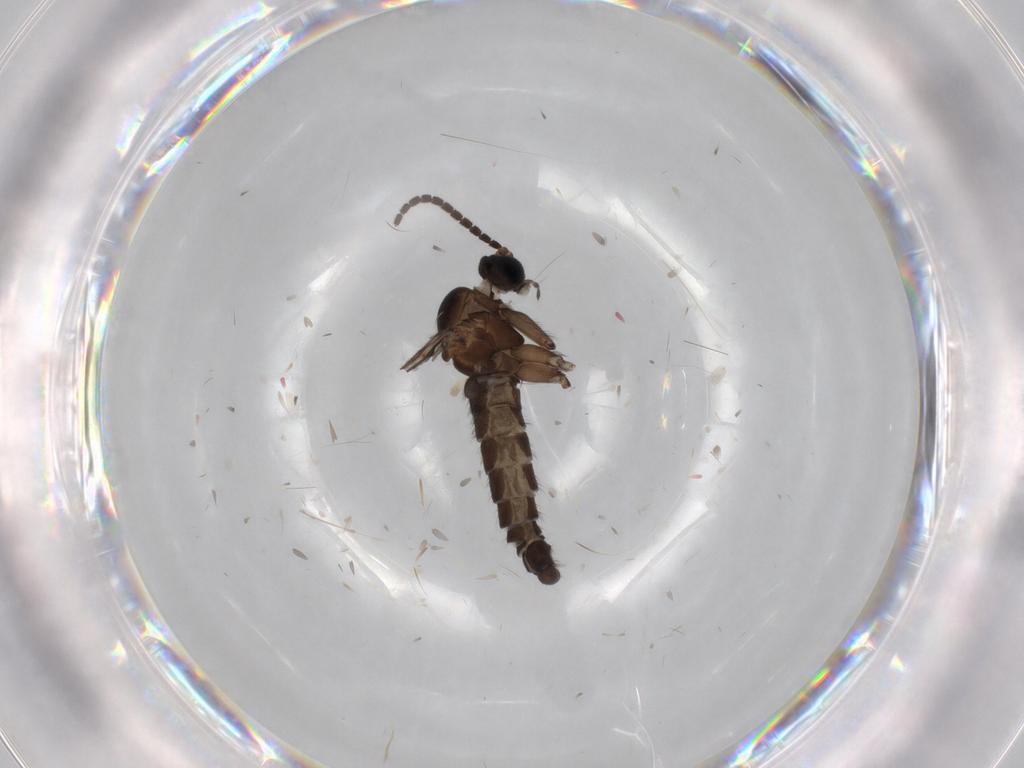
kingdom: Animalia
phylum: Arthropoda
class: Insecta
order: Diptera
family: Sciaridae
